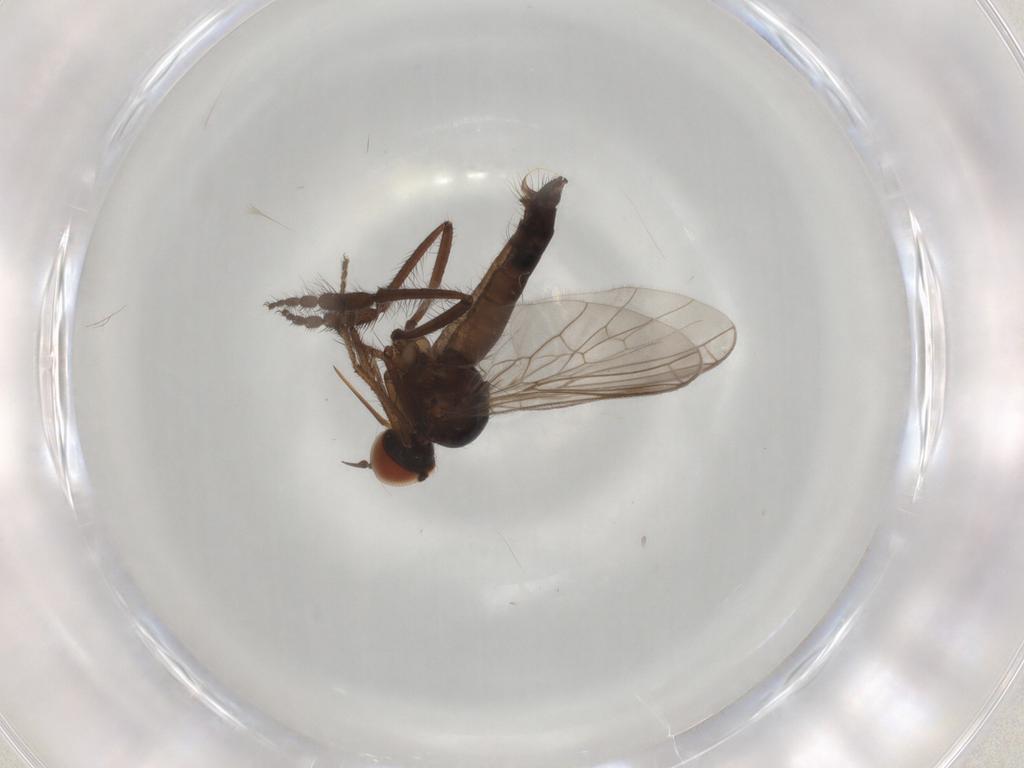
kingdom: Animalia
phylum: Arthropoda
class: Insecta
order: Diptera
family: Empididae
